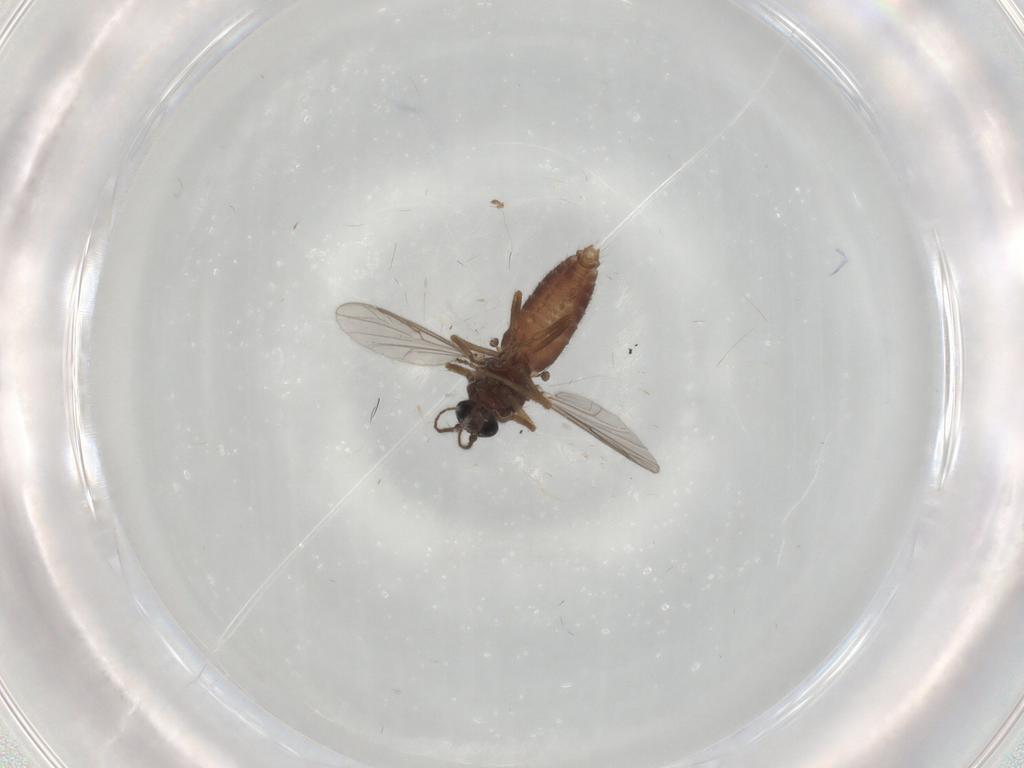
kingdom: Animalia
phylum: Arthropoda
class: Insecta
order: Diptera
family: Ceratopogonidae
